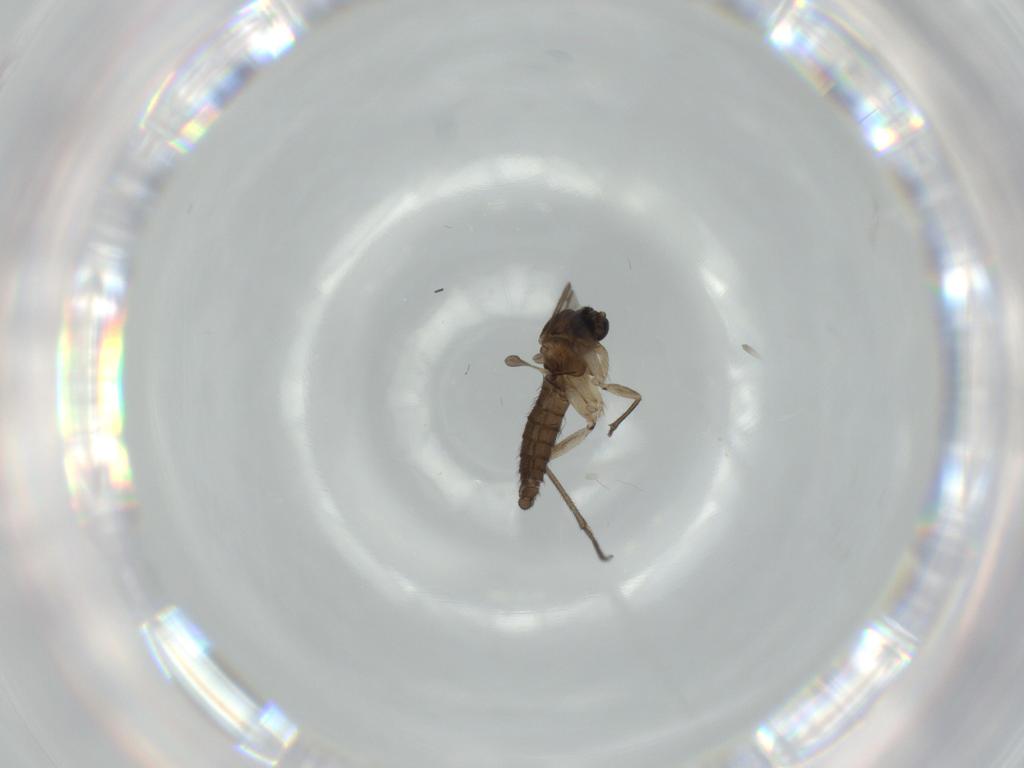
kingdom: Animalia
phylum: Arthropoda
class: Insecta
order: Diptera
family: Sciaridae
